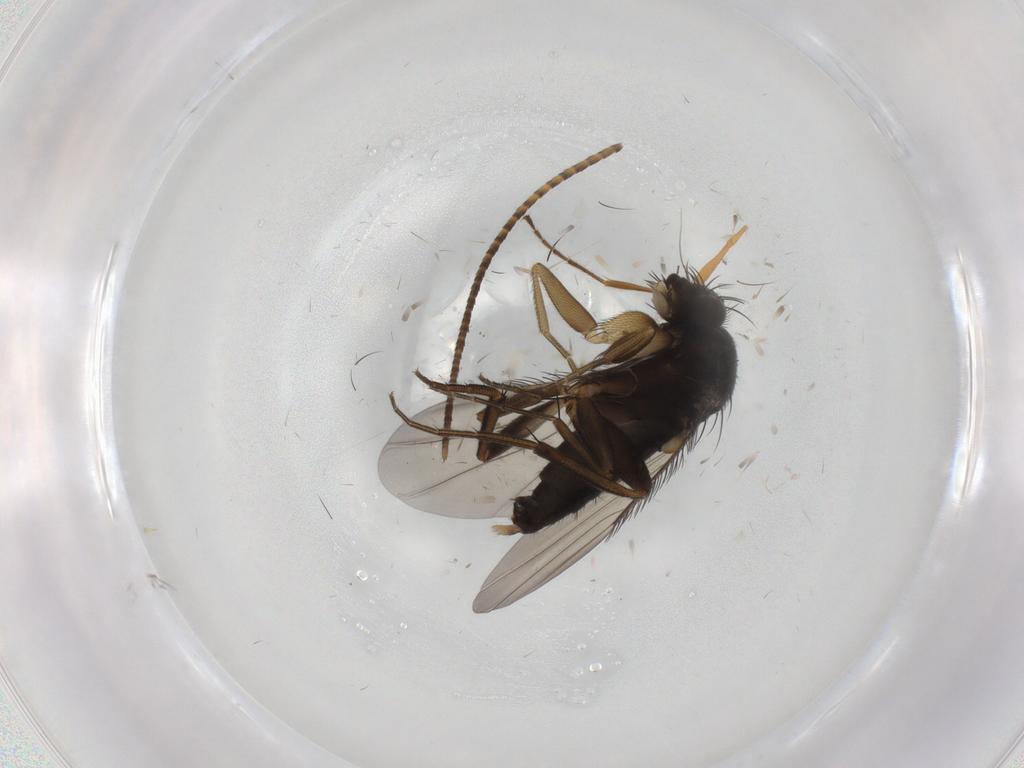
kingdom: Animalia
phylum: Arthropoda
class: Insecta
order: Diptera
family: Phoridae
